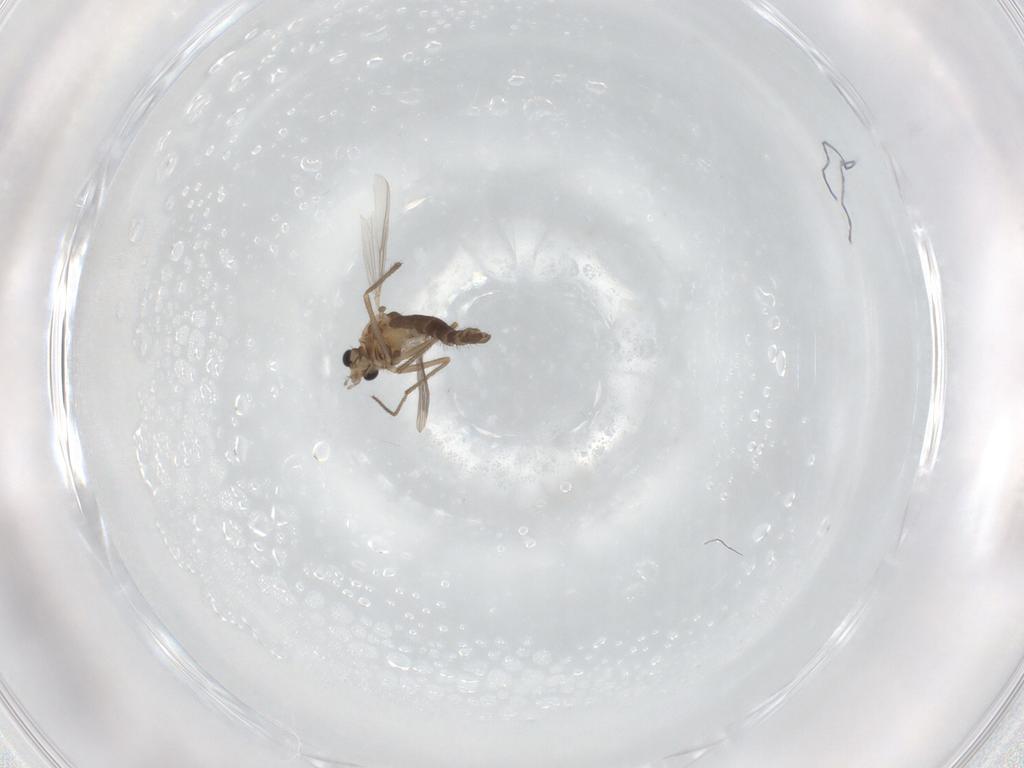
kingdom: Animalia
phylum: Arthropoda
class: Insecta
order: Diptera
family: Chironomidae
